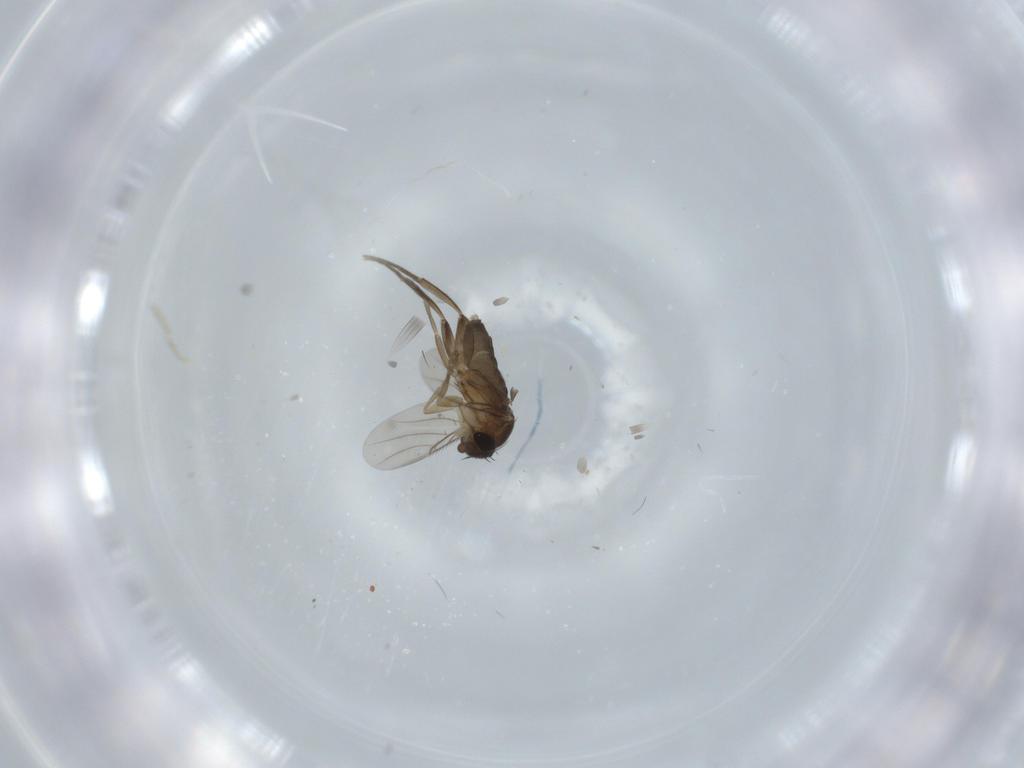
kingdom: Animalia
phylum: Arthropoda
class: Insecta
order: Diptera
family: Phoridae
